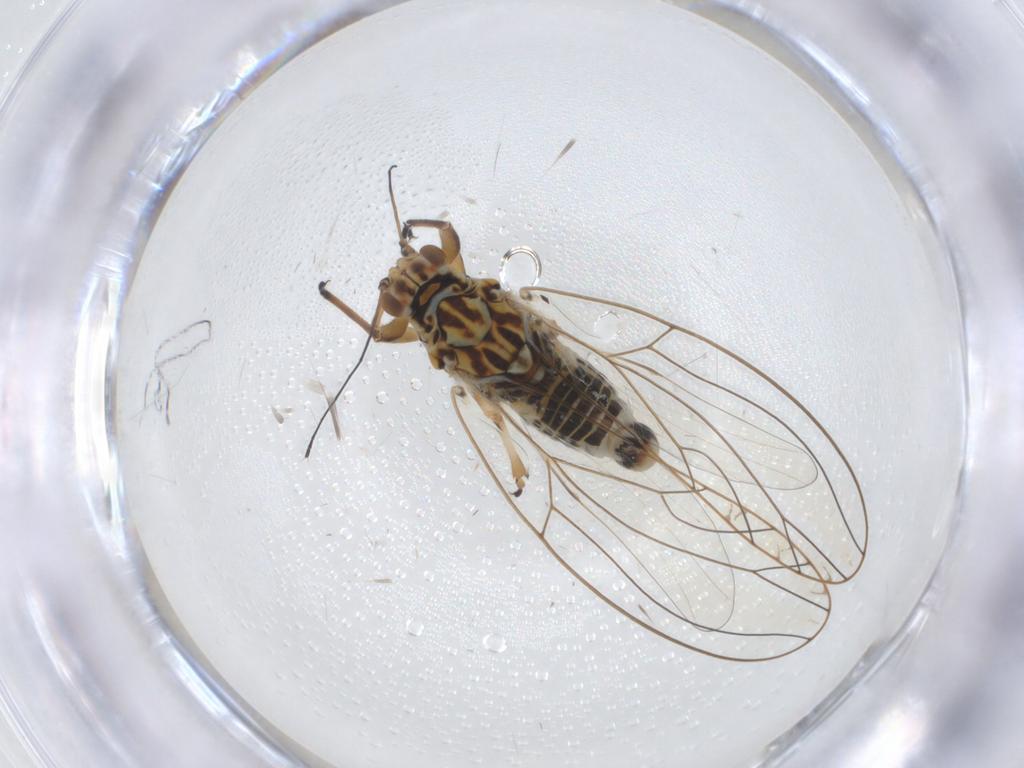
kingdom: Animalia
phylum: Arthropoda
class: Insecta
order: Hemiptera
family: Triozidae
